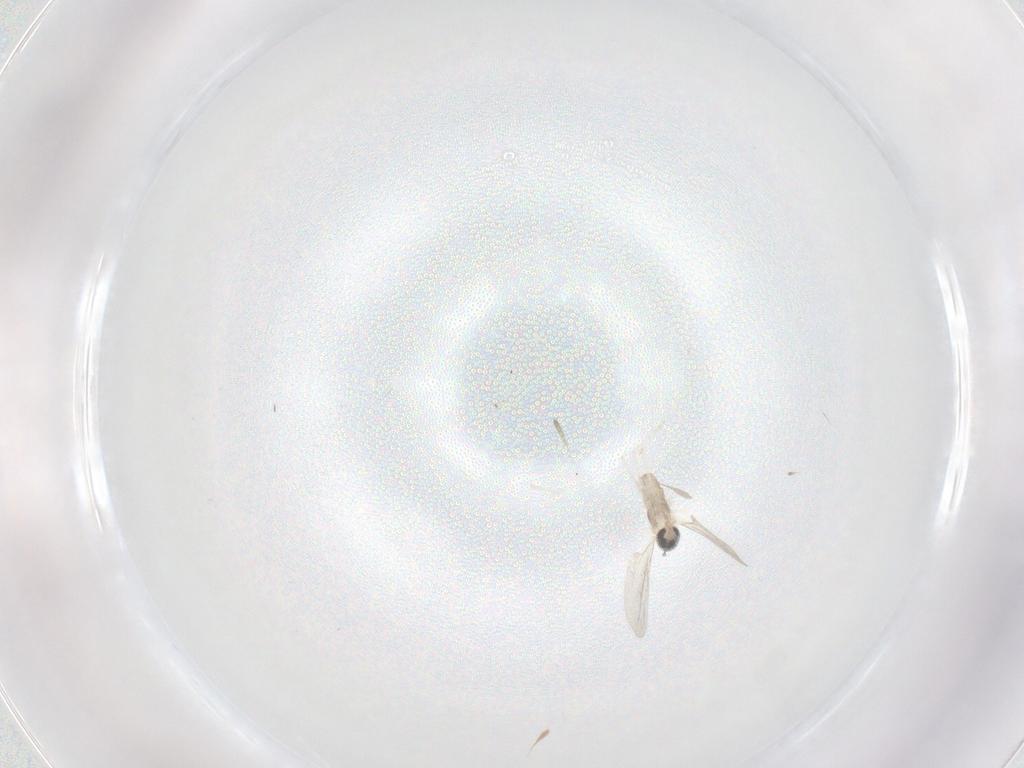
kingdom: Animalia
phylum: Arthropoda
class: Insecta
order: Diptera
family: Cecidomyiidae
